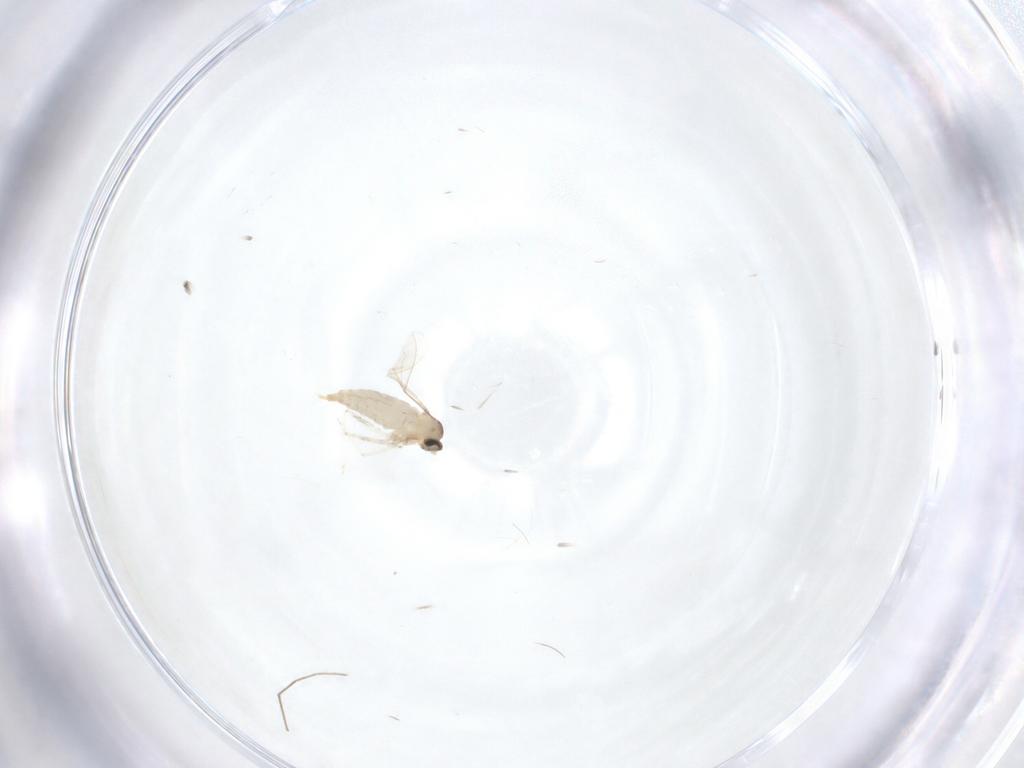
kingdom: Animalia
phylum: Arthropoda
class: Insecta
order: Diptera
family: Chironomidae
